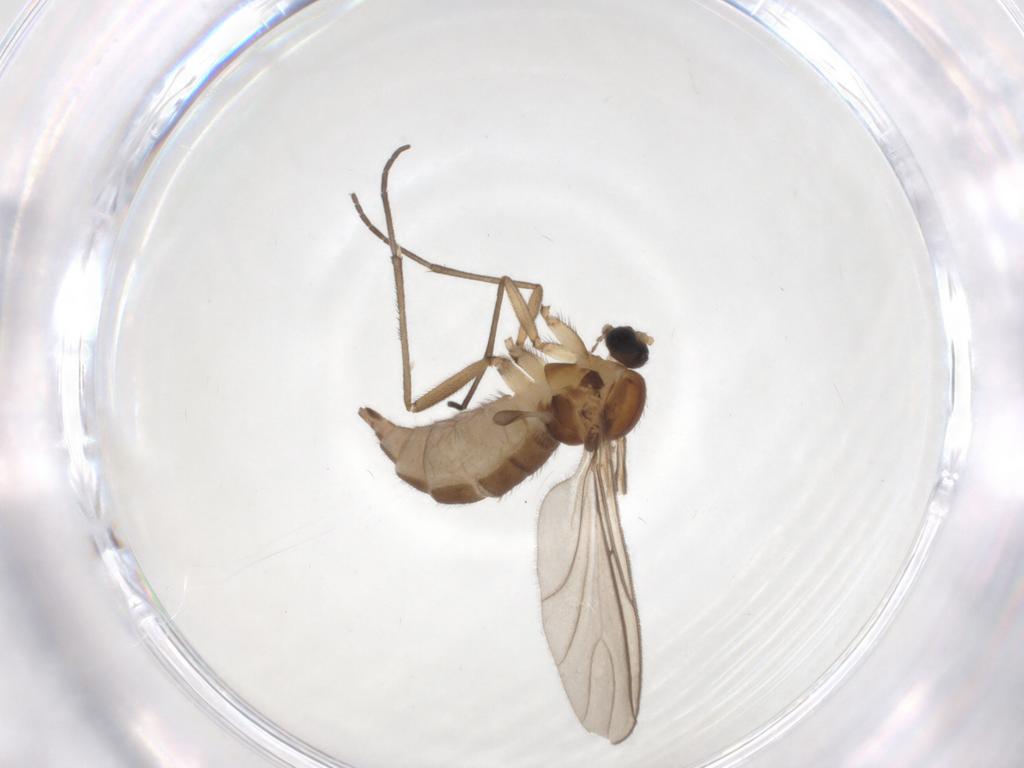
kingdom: Animalia
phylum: Arthropoda
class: Insecta
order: Diptera
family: Sciaridae
